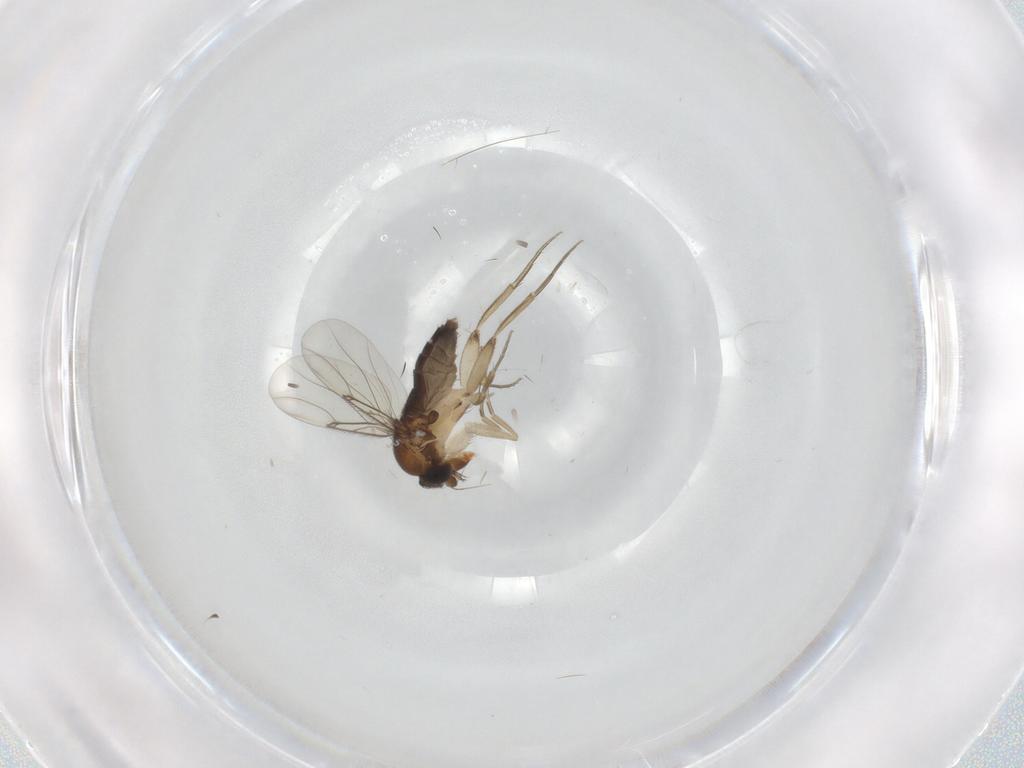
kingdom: Animalia
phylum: Arthropoda
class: Insecta
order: Diptera
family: Phoridae
